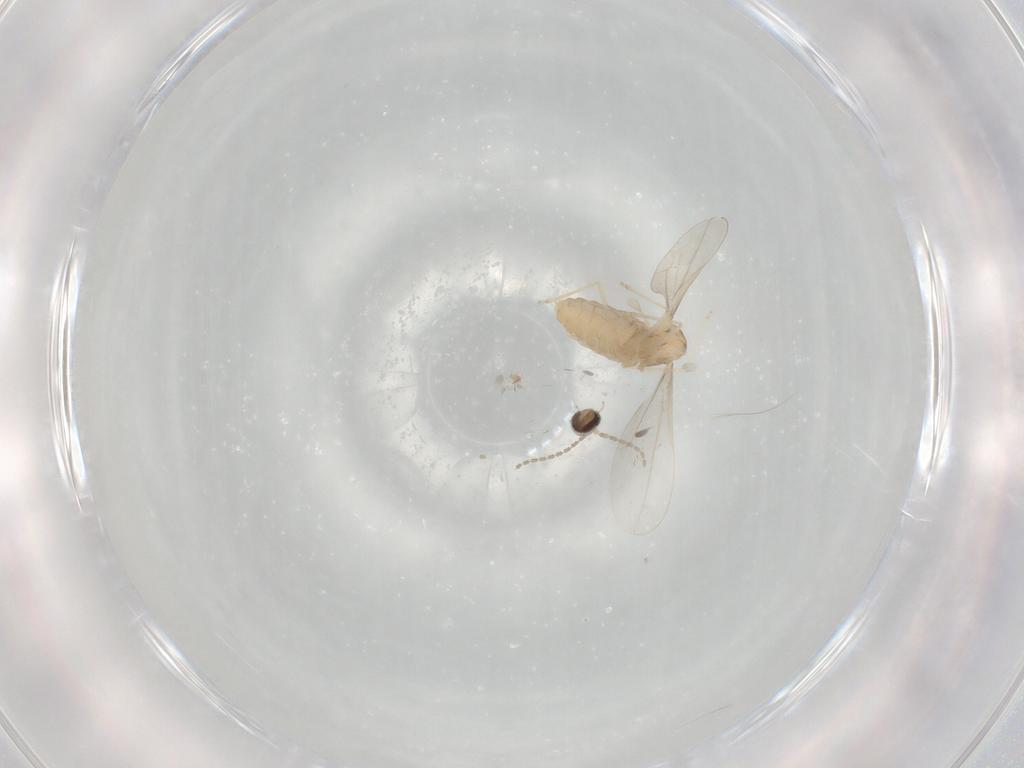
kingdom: Animalia
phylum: Arthropoda
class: Insecta
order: Diptera
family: Cecidomyiidae
